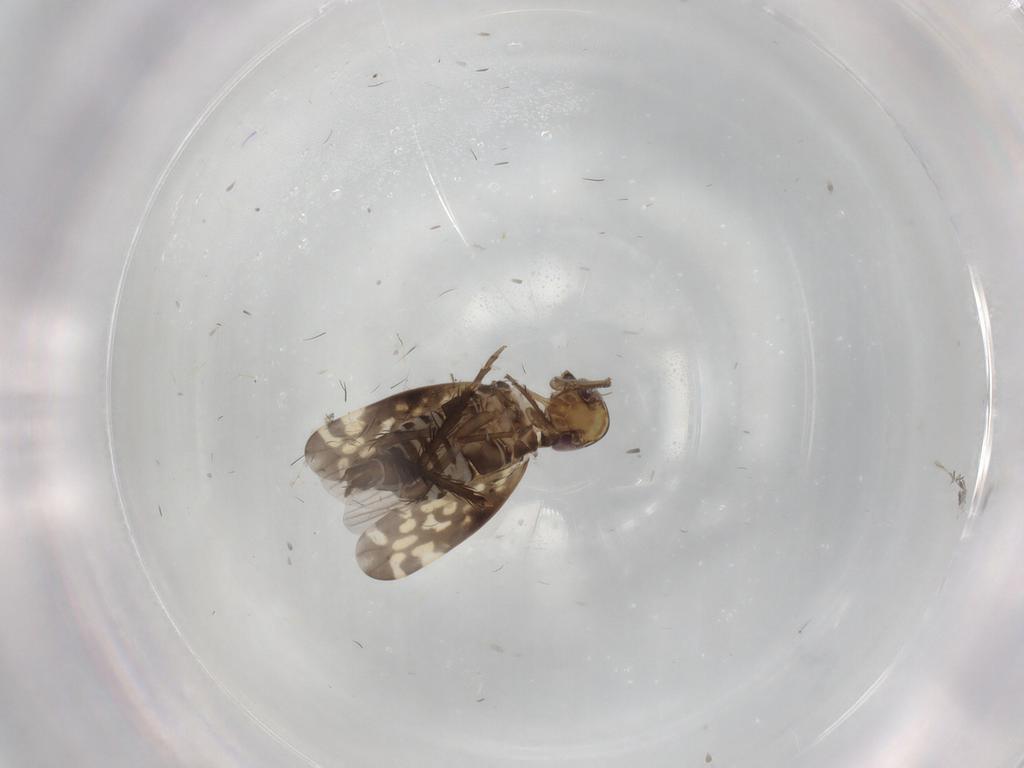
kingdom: Animalia
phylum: Arthropoda
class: Insecta
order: Hemiptera
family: Cicadellidae
